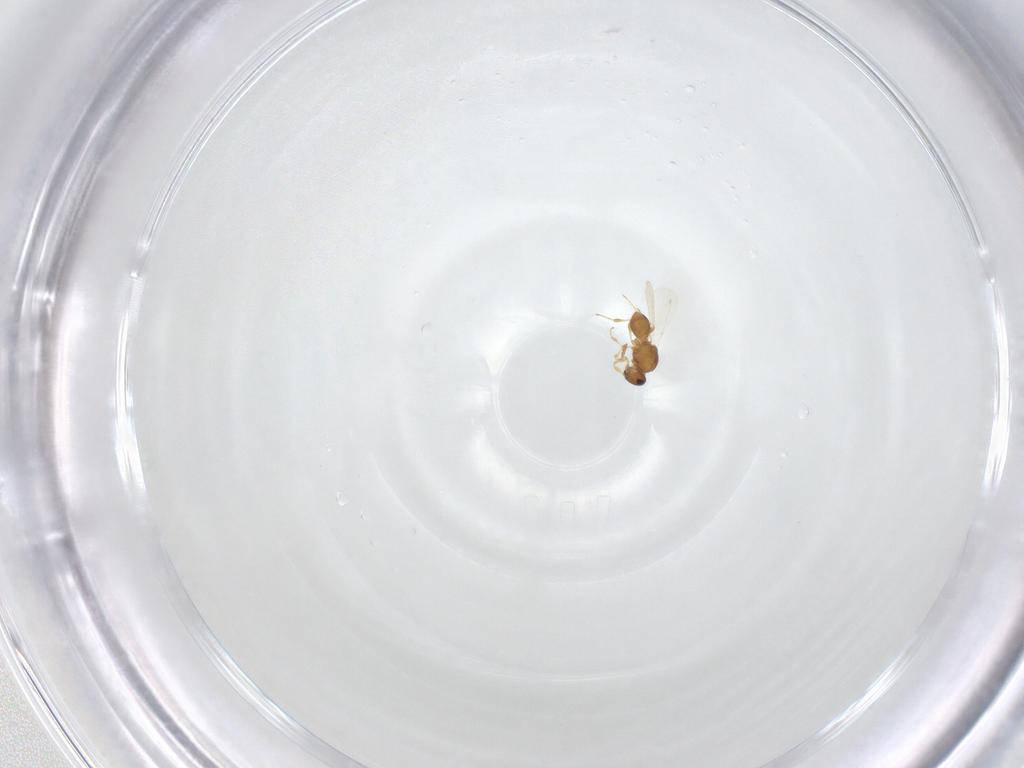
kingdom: Animalia
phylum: Arthropoda
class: Insecta
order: Hymenoptera
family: Platygastridae
